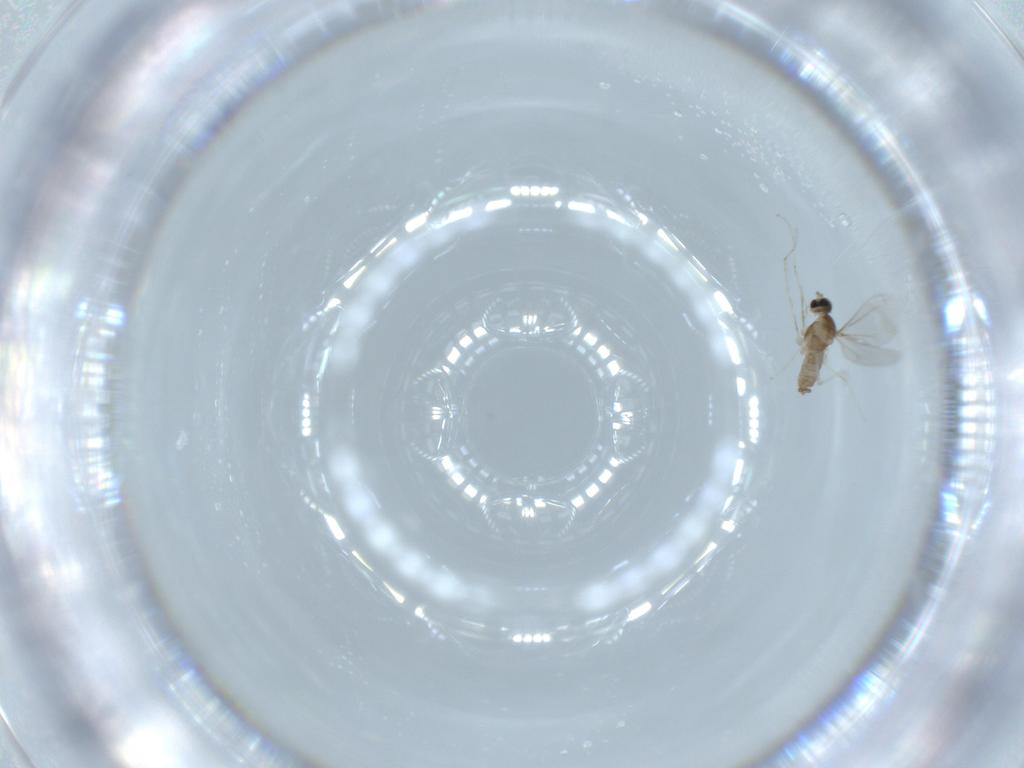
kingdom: Animalia
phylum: Arthropoda
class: Insecta
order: Diptera
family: Cecidomyiidae
